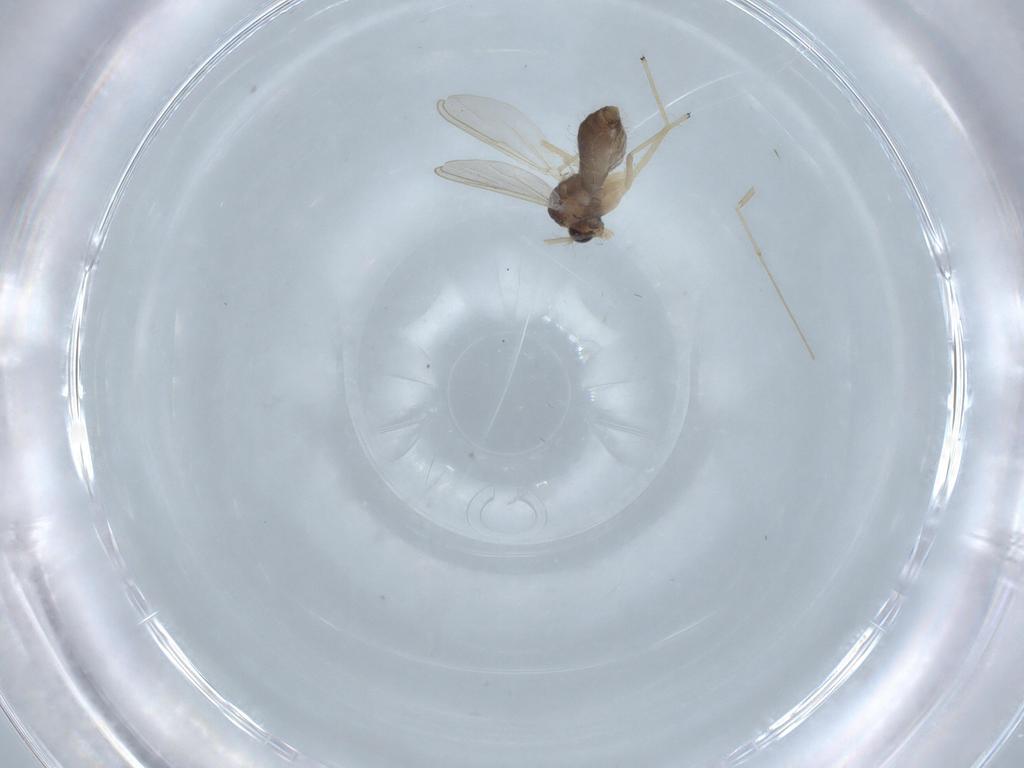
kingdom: Animalia
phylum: Arthropoda
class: Insecta
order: Diptera
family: Chironomidae
